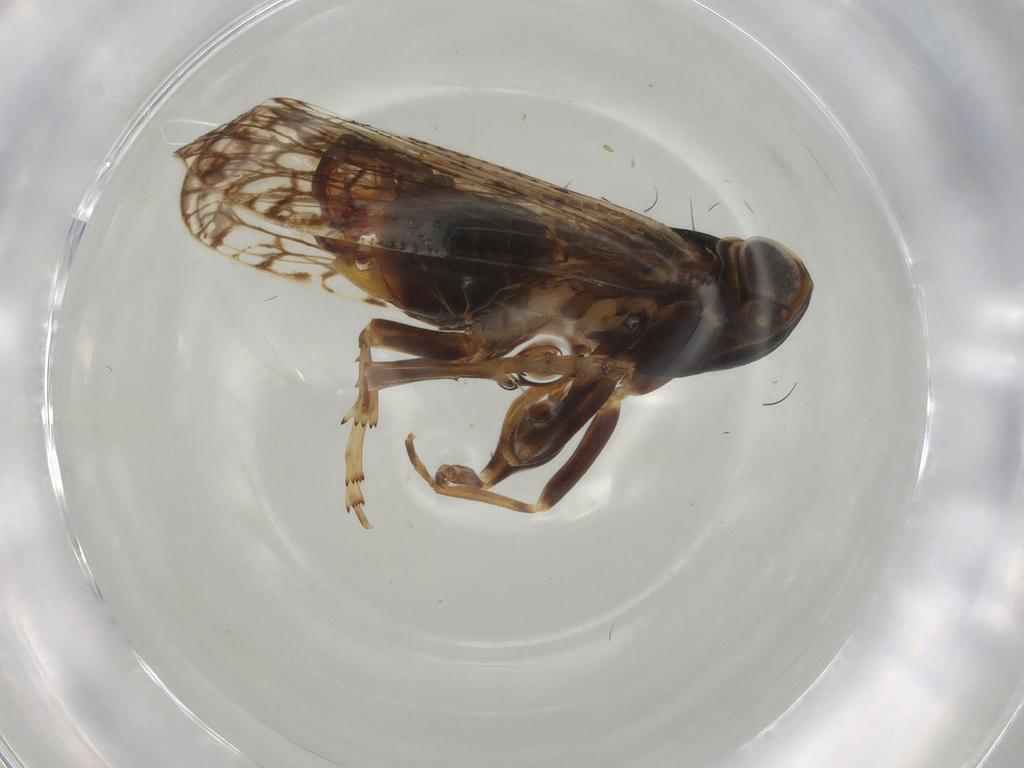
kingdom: Animalia
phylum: Arthropoda
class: Insecta
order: Hemiptera
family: Cixiidae
